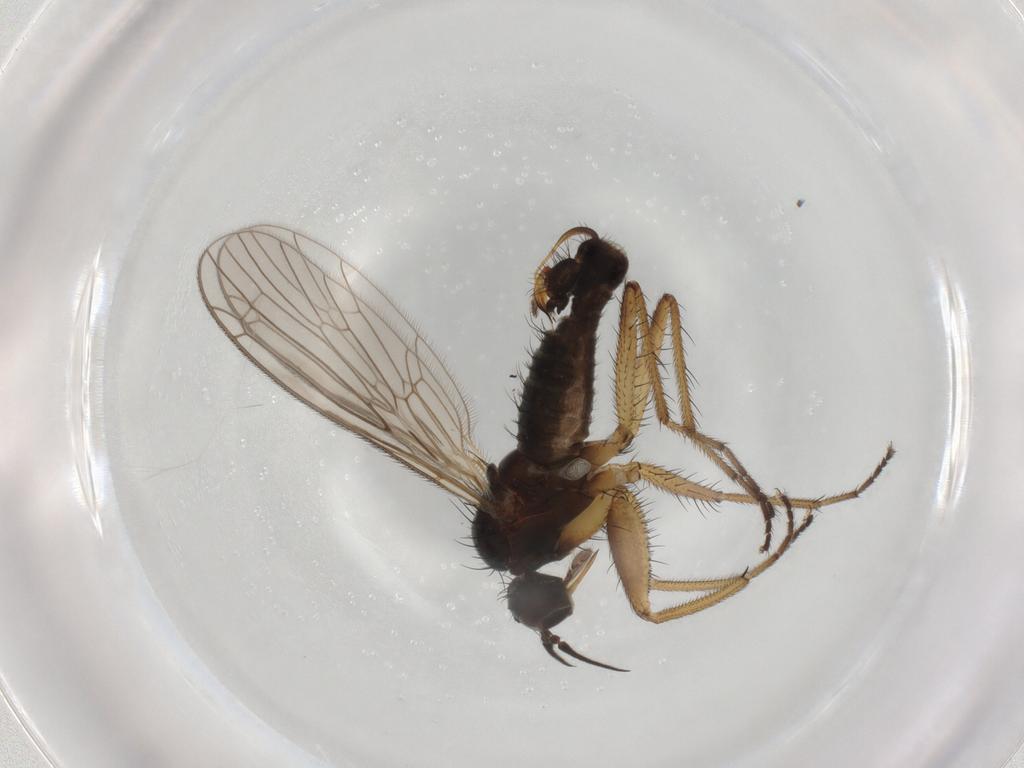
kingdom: Animalia
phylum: Arthropoda
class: Insecta
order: Diptera
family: Empididae
